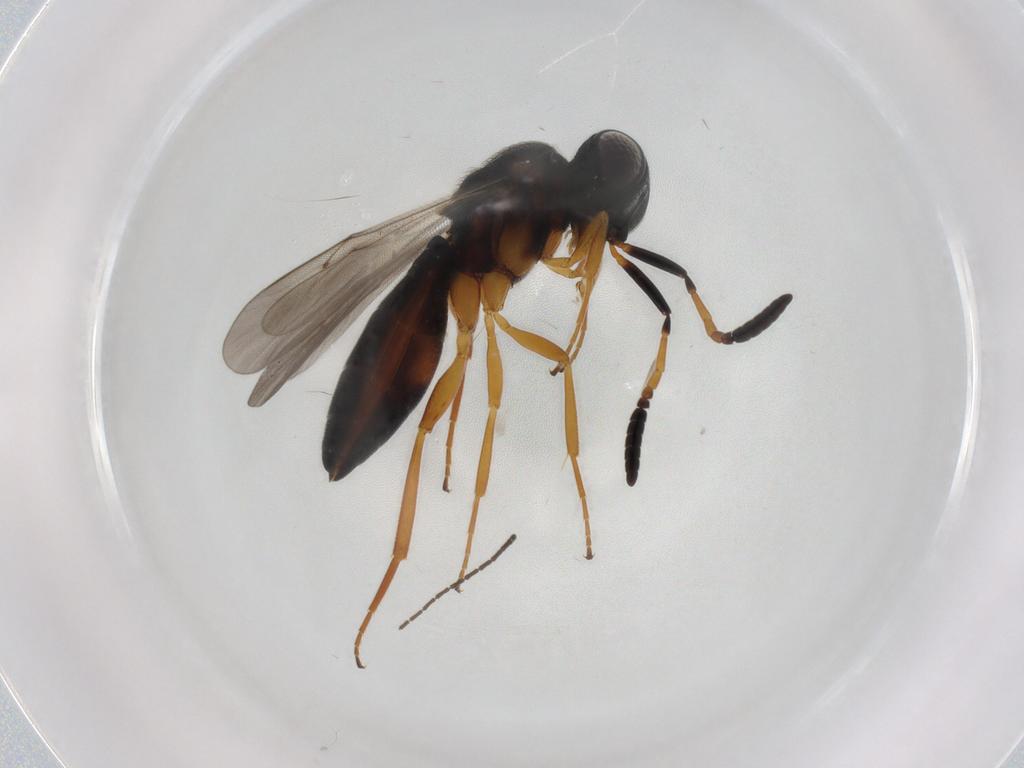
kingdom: Animalia
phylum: Arthropoda
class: Insecta
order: Hymenoptera
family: Scelionidae
